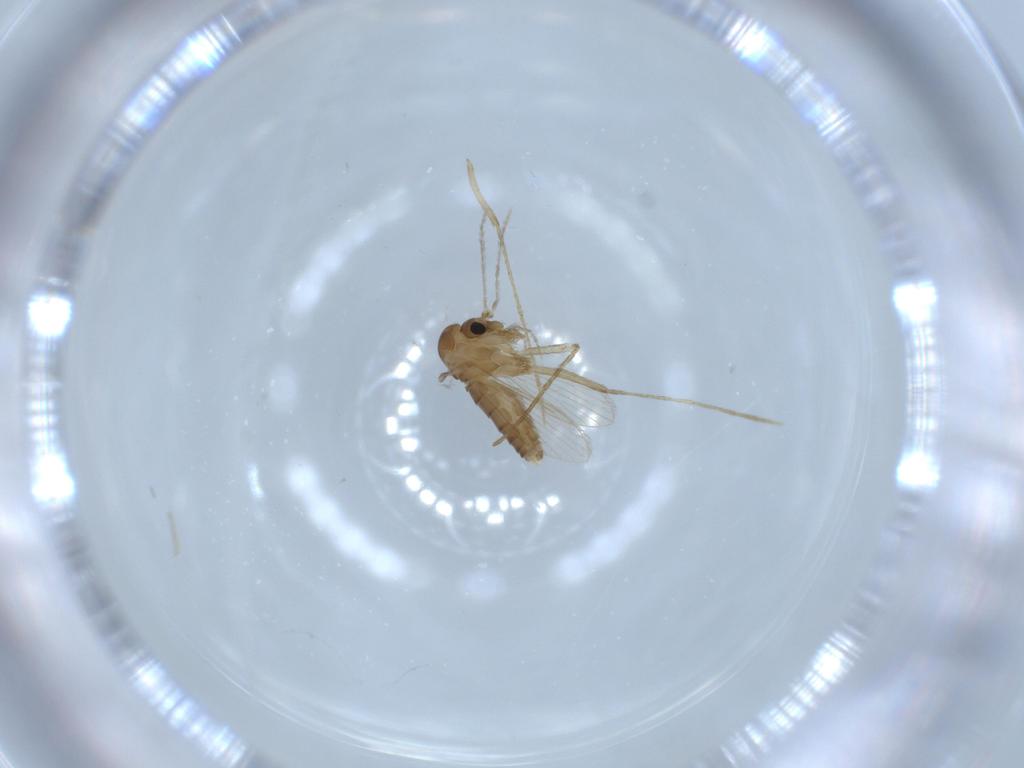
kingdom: Animalia
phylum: Arthropoda
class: Insecta
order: Diptera
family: Psychodidae
